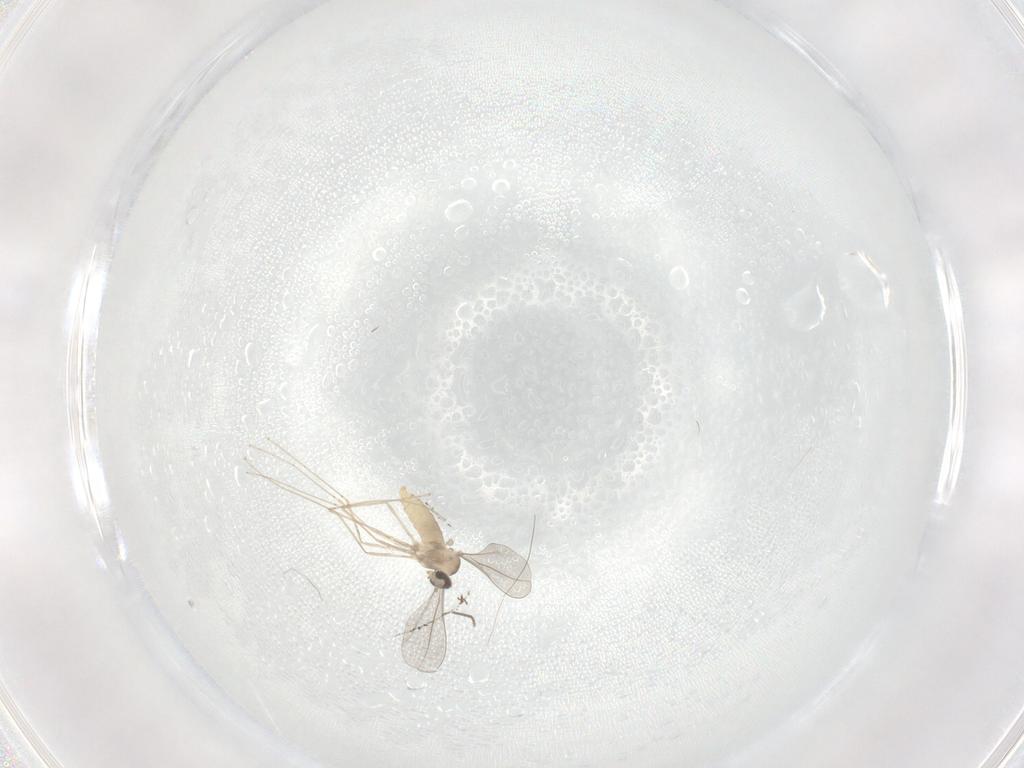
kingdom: Animalia
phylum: Arthropoda
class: Insecta
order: Diptera
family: Chironomidae
